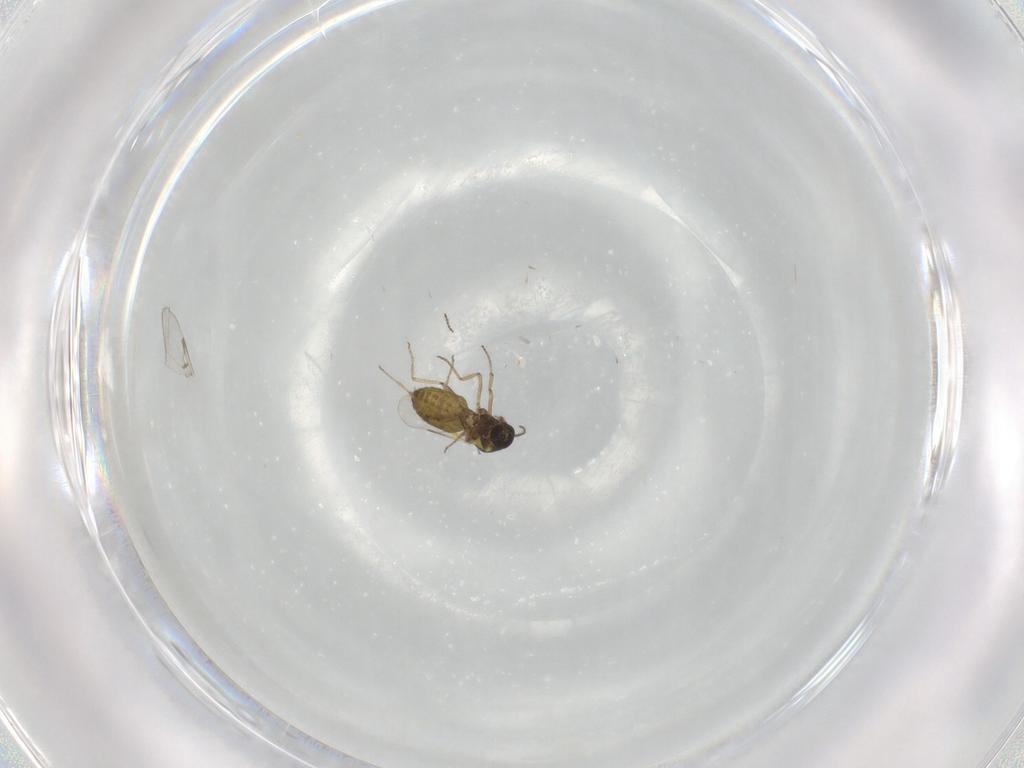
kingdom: Animalia
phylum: Arthropoda
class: Insecta
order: Diptera
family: Ceratopogonidae
